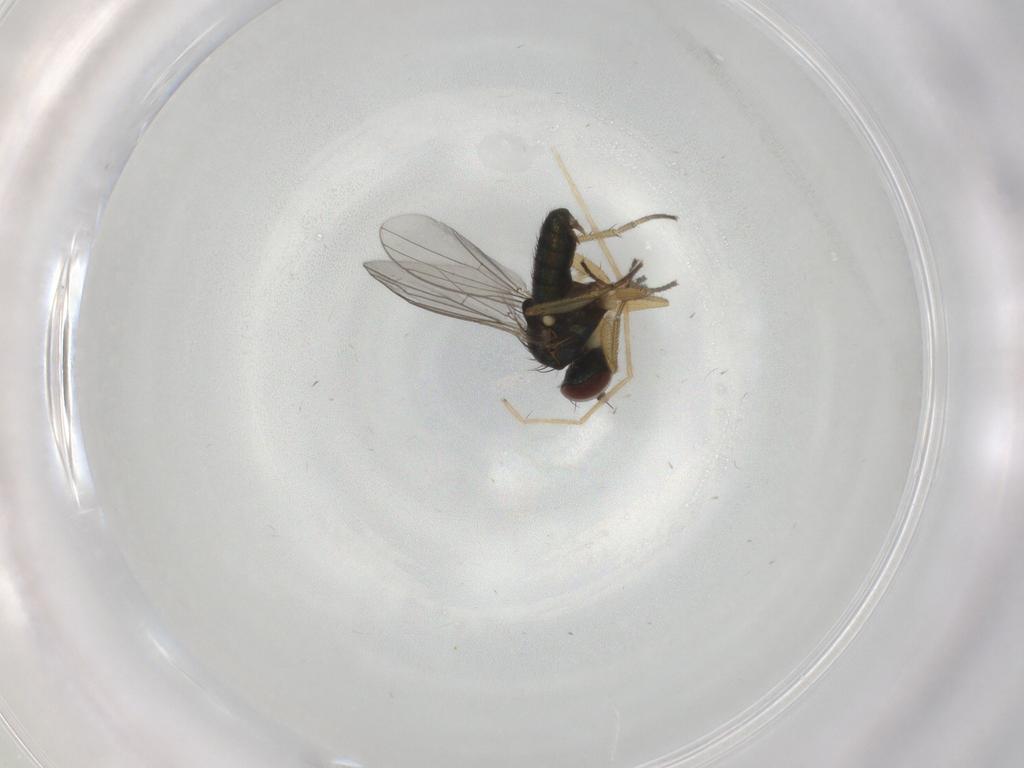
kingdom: Animalia
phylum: Arthropoda
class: Insecta
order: Diptera
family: Chironomidae
